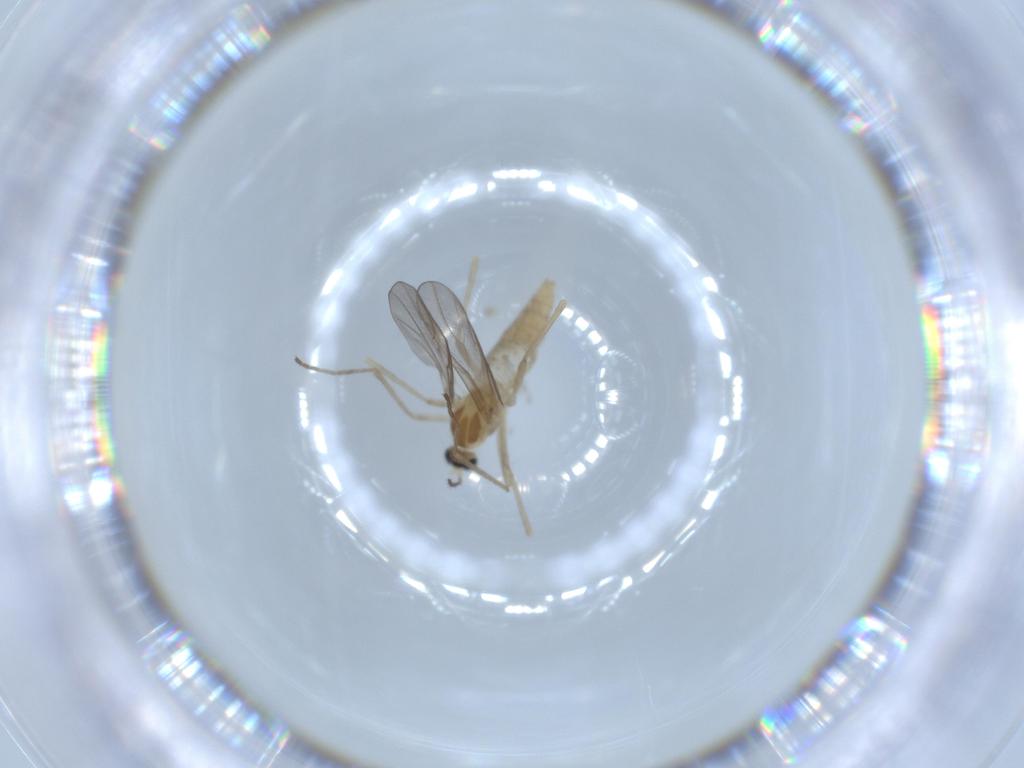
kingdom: Animalia
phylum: Arthropoda
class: Insecta
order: Diptera
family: Cecidomyiidae
